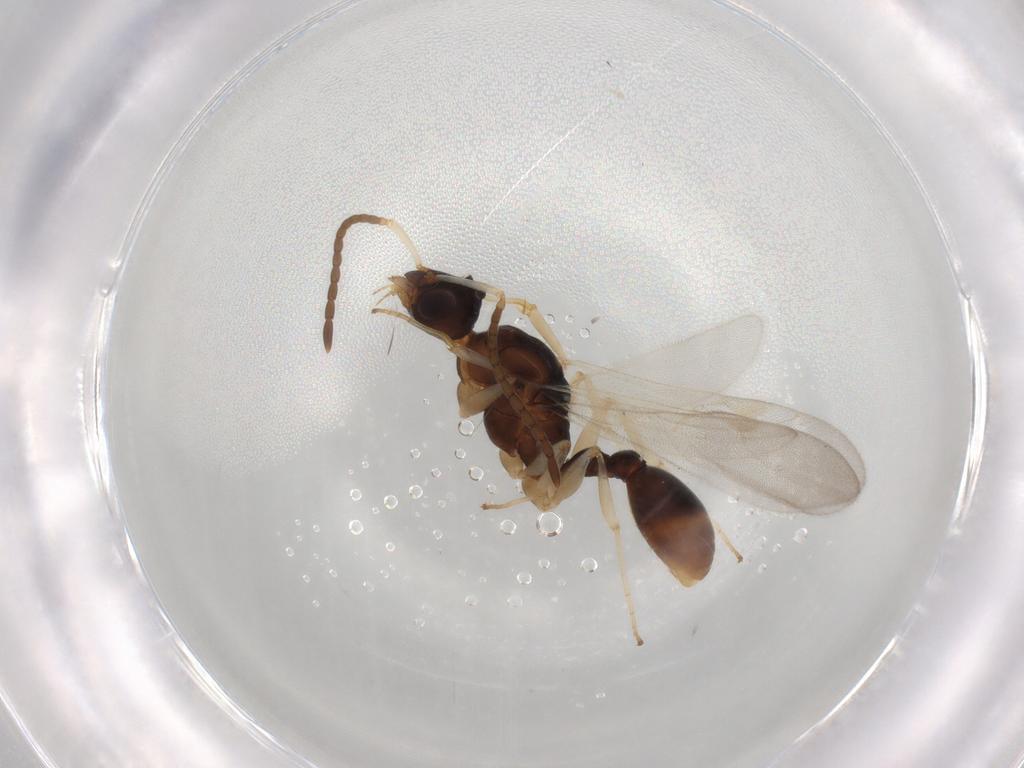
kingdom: Animalia
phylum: Arthropoda
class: Insecta
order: Hymenoptera
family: Formicidae
